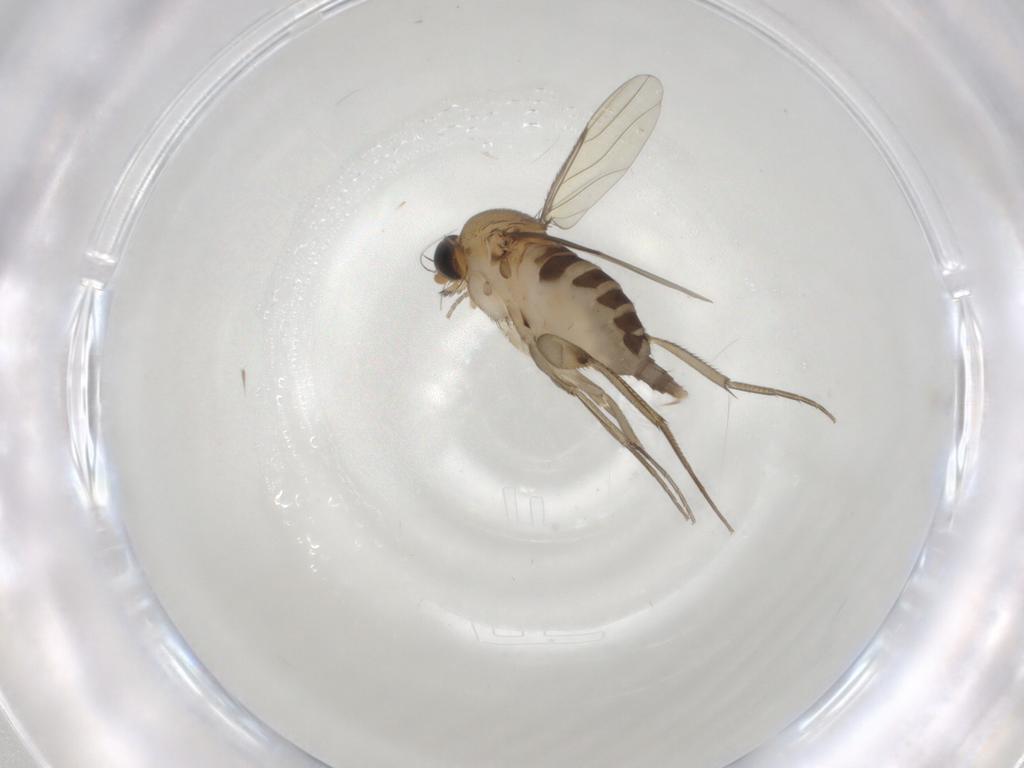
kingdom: Animalia
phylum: Arthropoda
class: Insecta
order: Diptera
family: Phoridae
